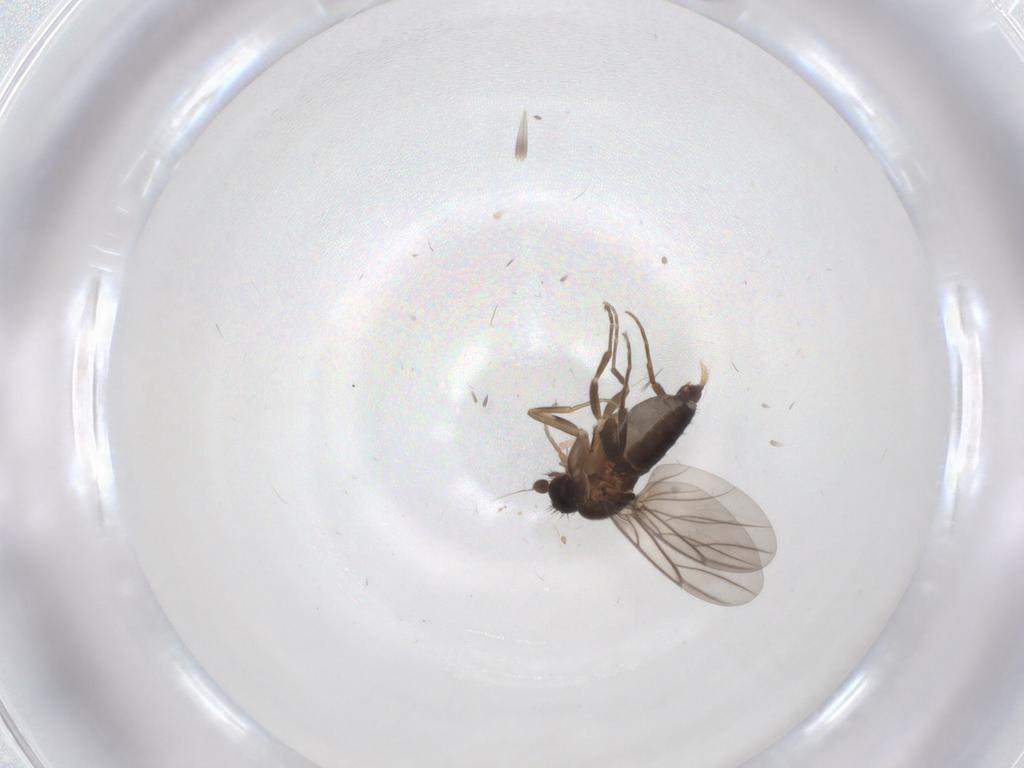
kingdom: Animalia
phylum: Arthropoda
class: Insecta
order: Diptera
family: Phoridae
